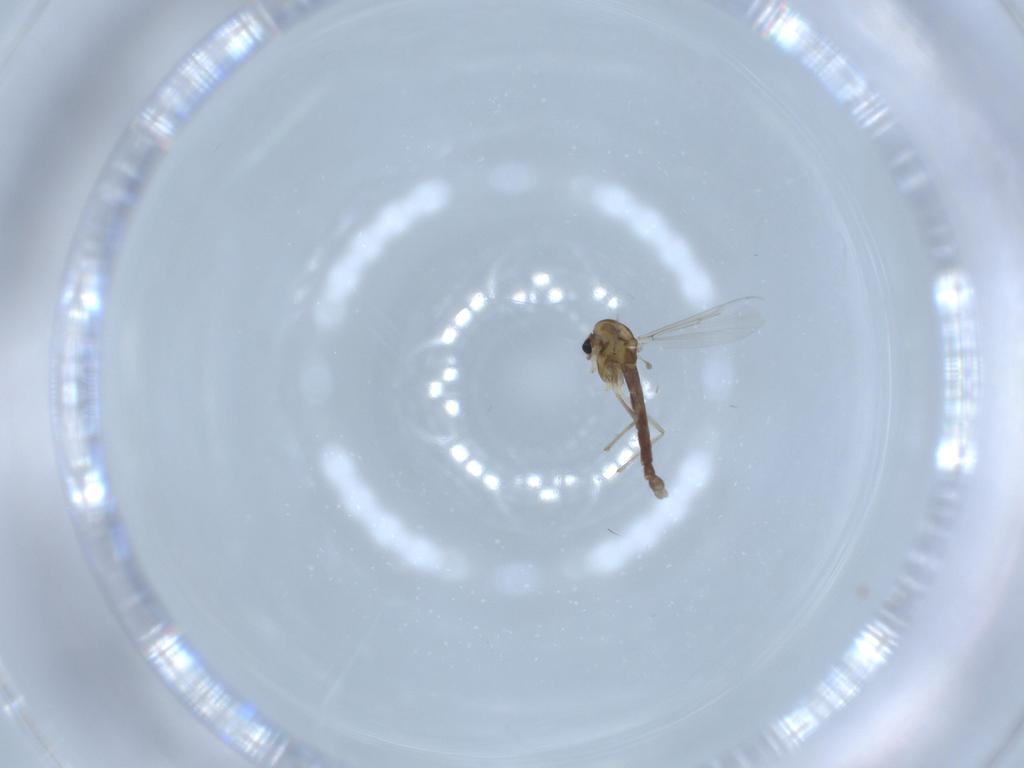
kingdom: Animalia
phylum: Arthropoda
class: Insecta
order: Diptera
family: Chironomidae
